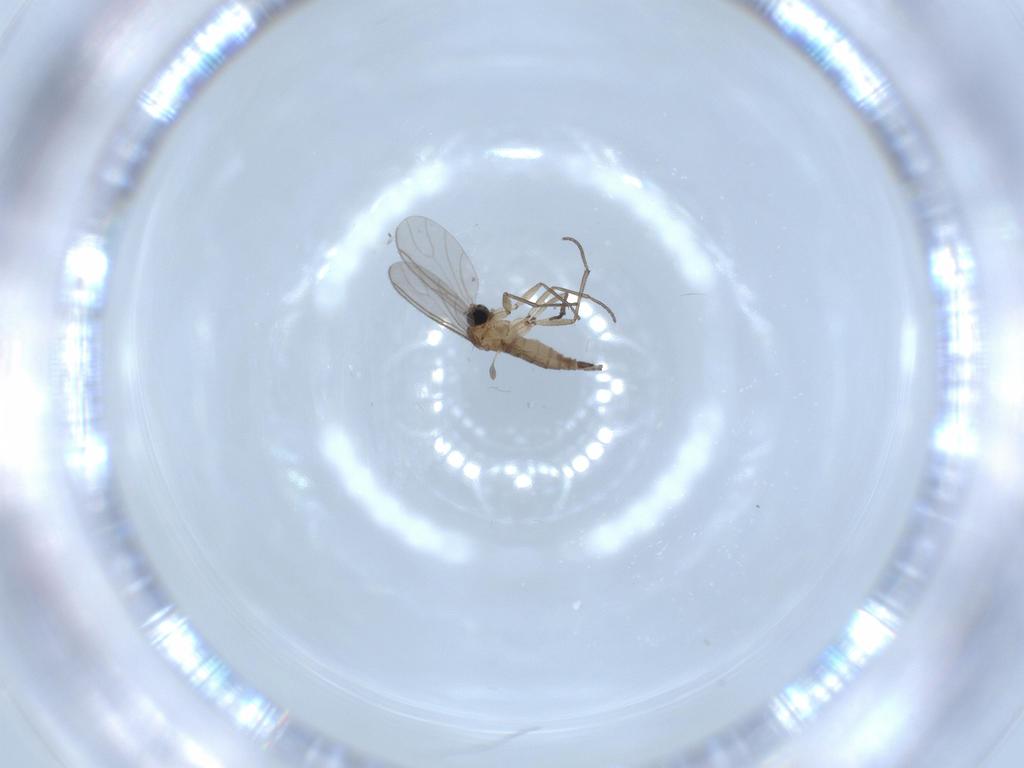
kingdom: Animalia
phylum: Arthropoda
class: Insecta
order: Diptera
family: Sciaridae
